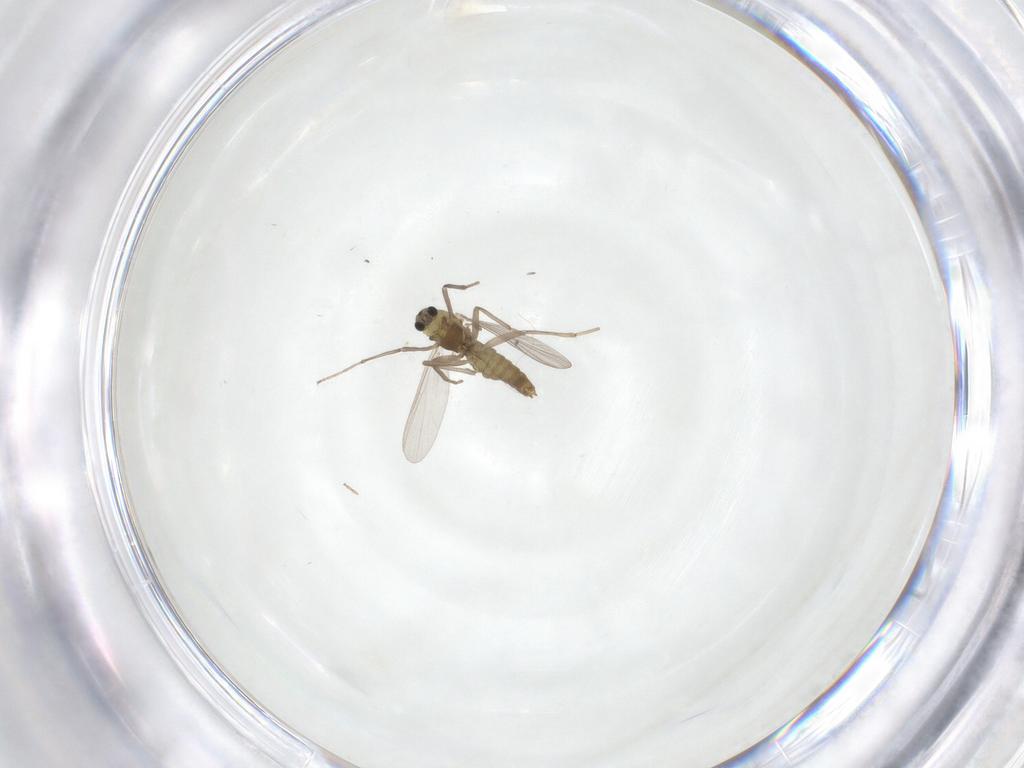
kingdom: Animalia
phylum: Arthropoda
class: Insecta
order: Diptera
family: Chironomidae
